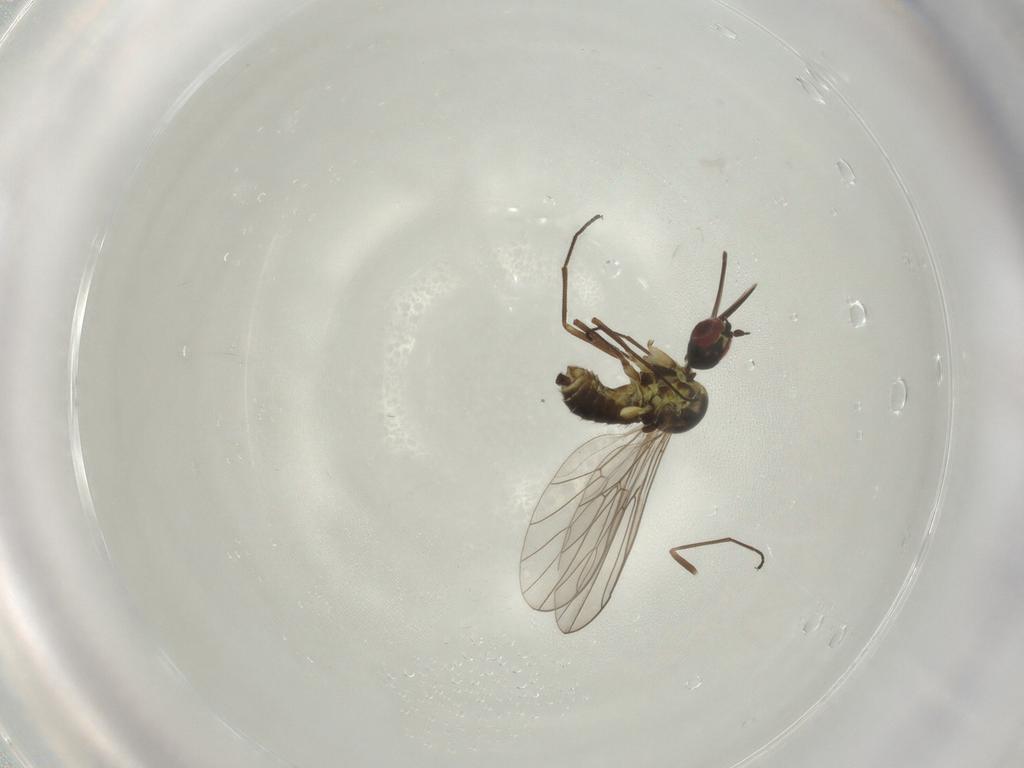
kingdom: Animalia
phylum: Arthropoda
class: Insecta
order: Diptera
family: Bombyliidae
